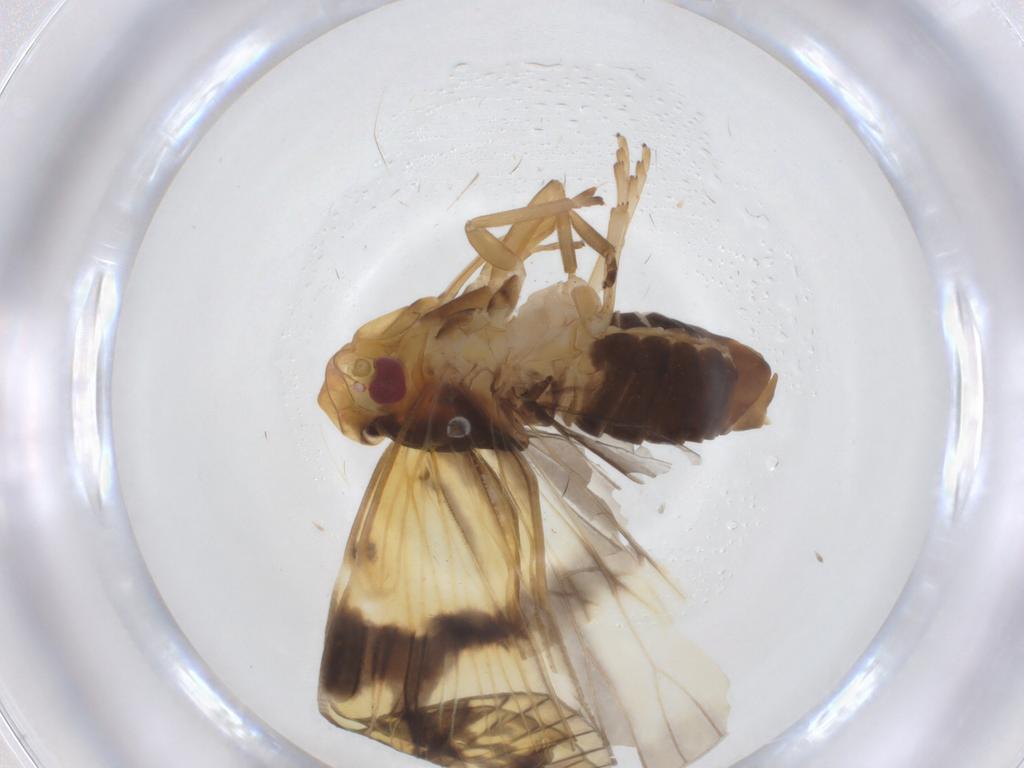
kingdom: Animalia
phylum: Arthropoda
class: Insecta
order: Hemiptera
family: Cixiidae
